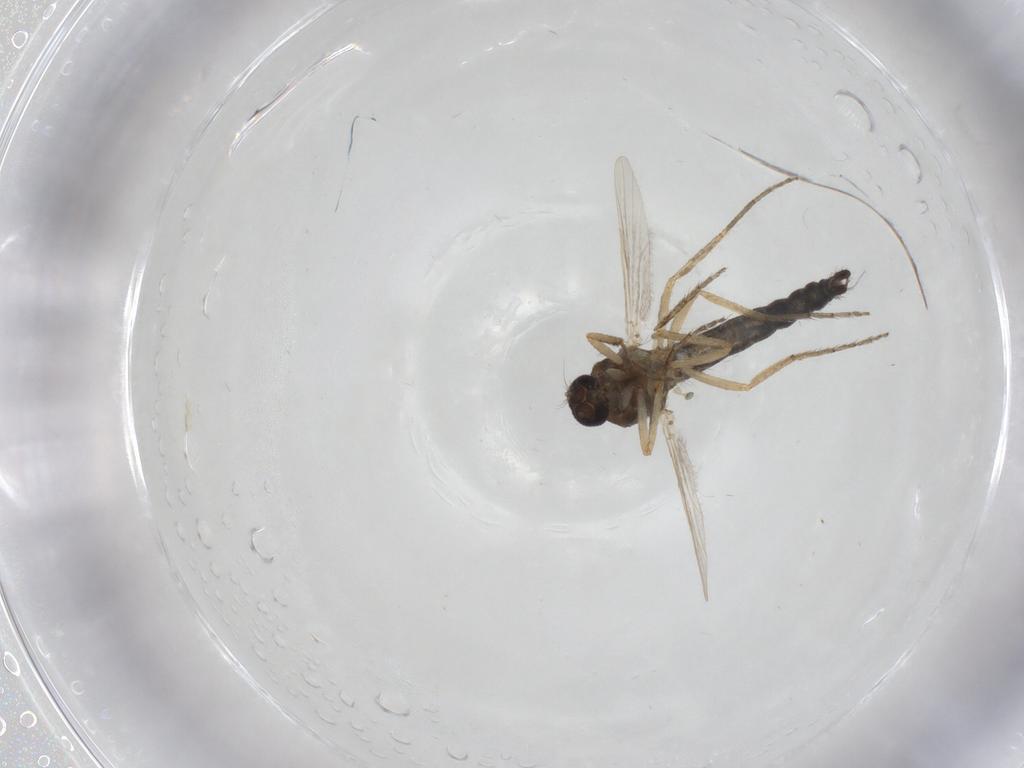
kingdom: Animalia
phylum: Arthropoda
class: Insecta
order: Diptera
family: Ceratopogonidae
